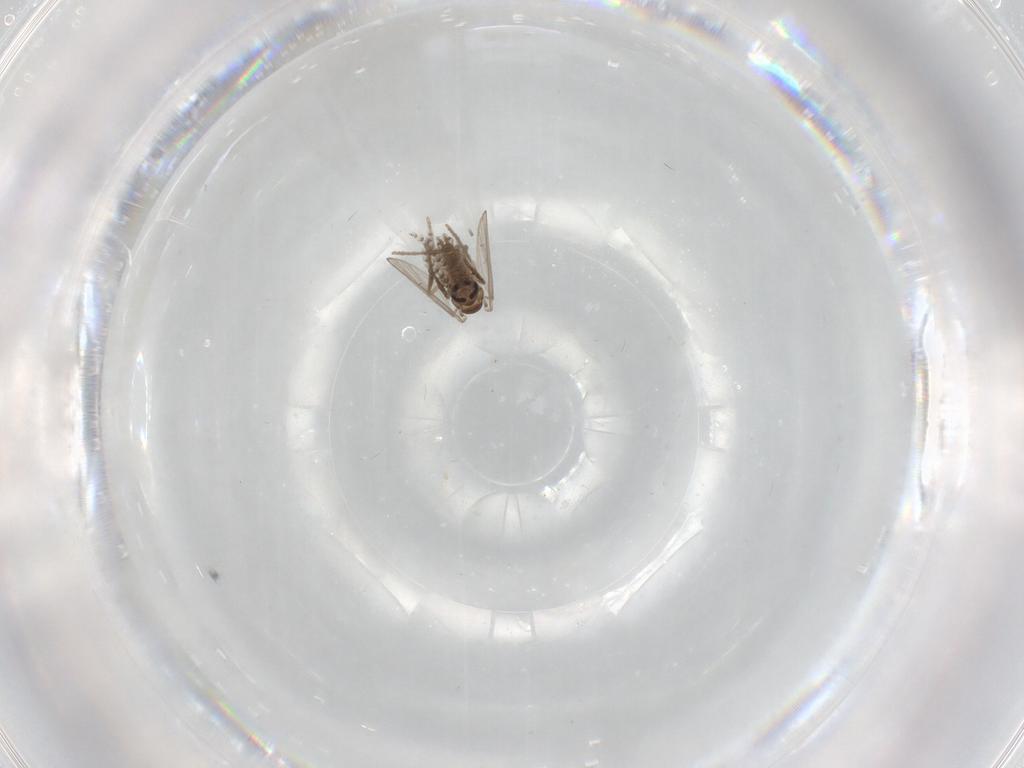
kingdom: Animalia
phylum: Arthropoda
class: Insecta
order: Diptera
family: Psychodidae
